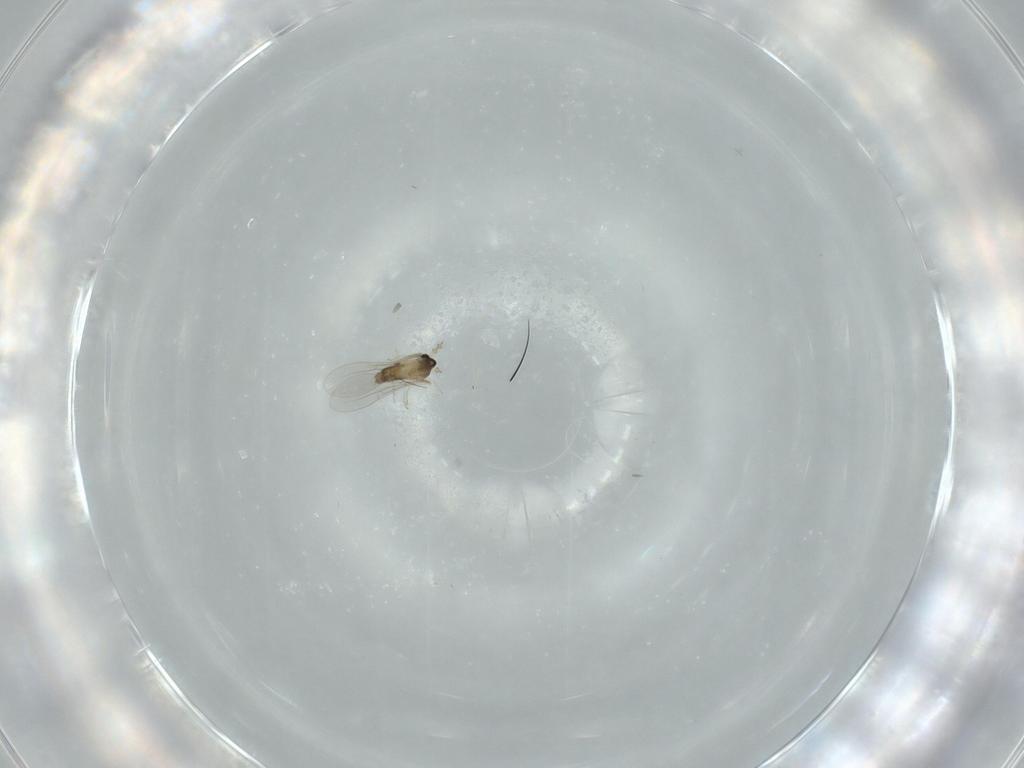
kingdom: Animalia
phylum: Arthropoda
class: Insecta
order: Diptera
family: Cecidomyiidae
